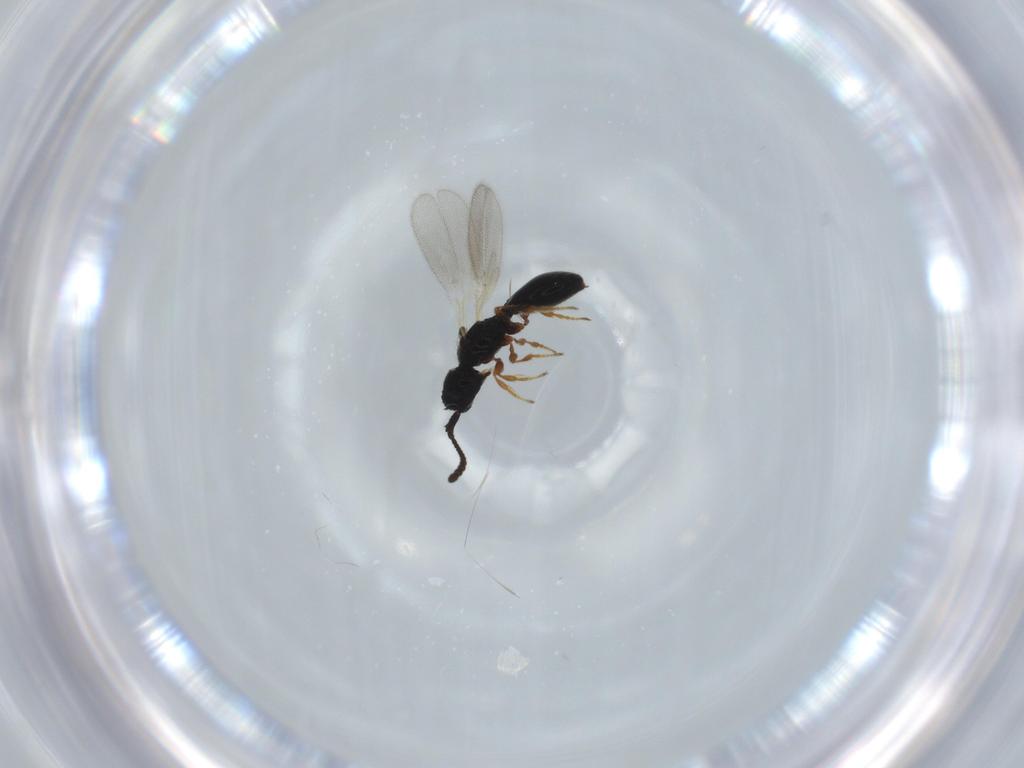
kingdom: Animalia
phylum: Arthropoda
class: Insecta
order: Hymenoptera
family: Diapriidae
